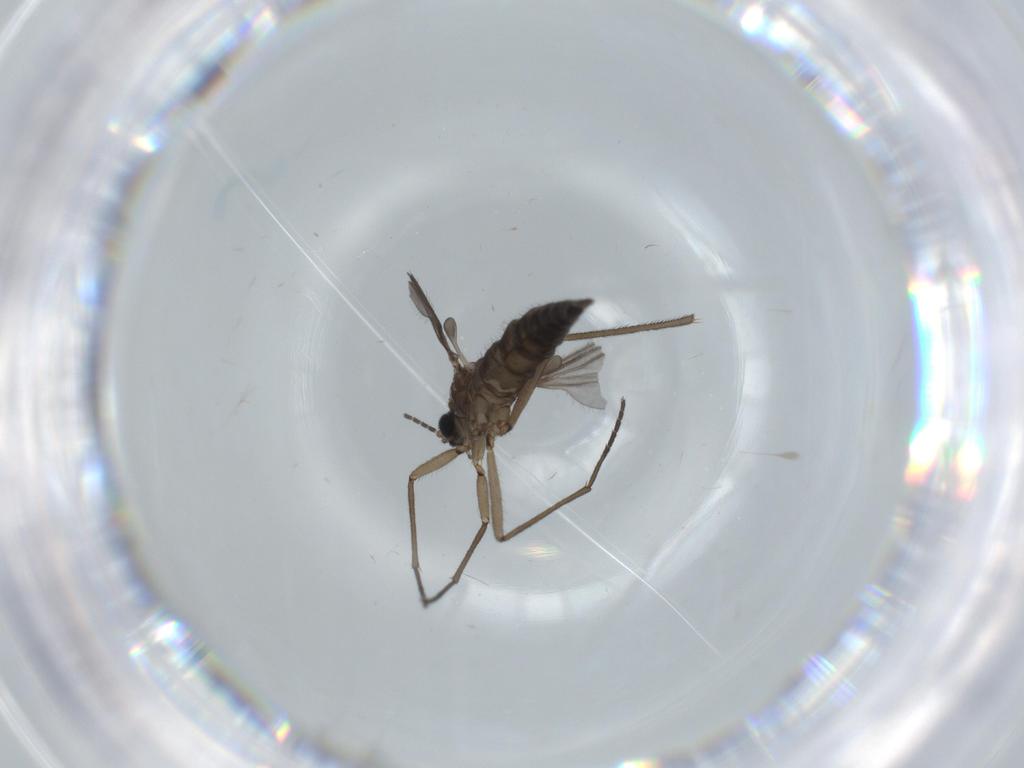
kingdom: Animalia
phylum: Arthropoda
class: Insecta
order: Diptera
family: Sciaridae
